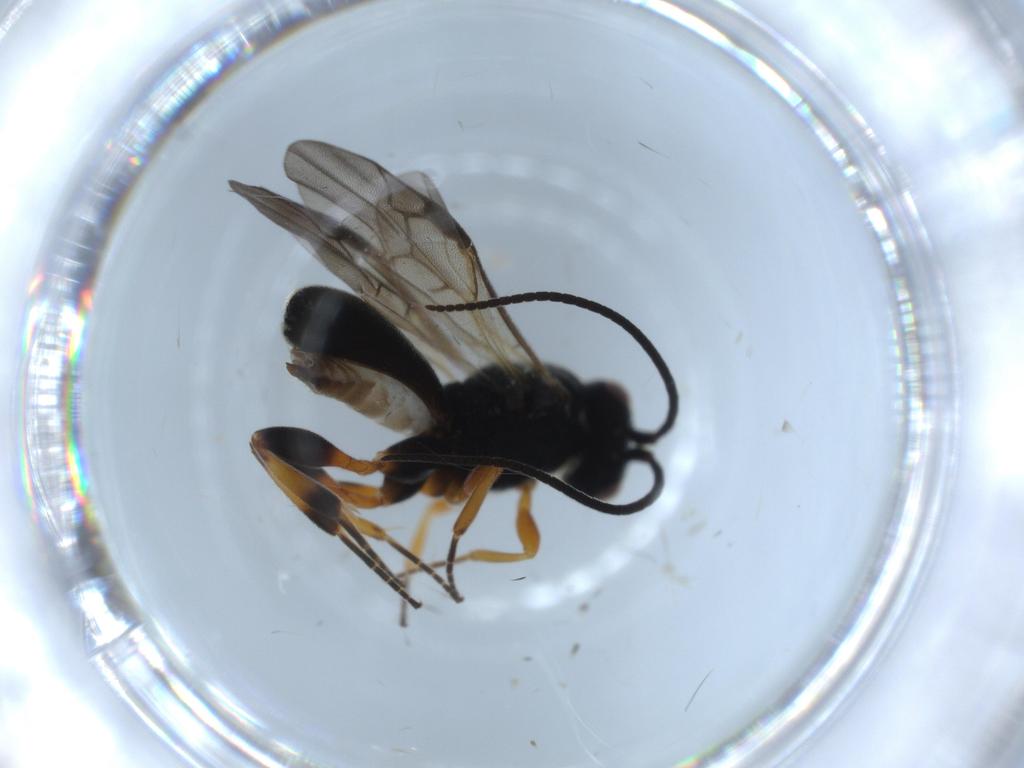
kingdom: Animalia
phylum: Arthropoda
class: Insecta
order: Hymenoptera
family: Braconidae
